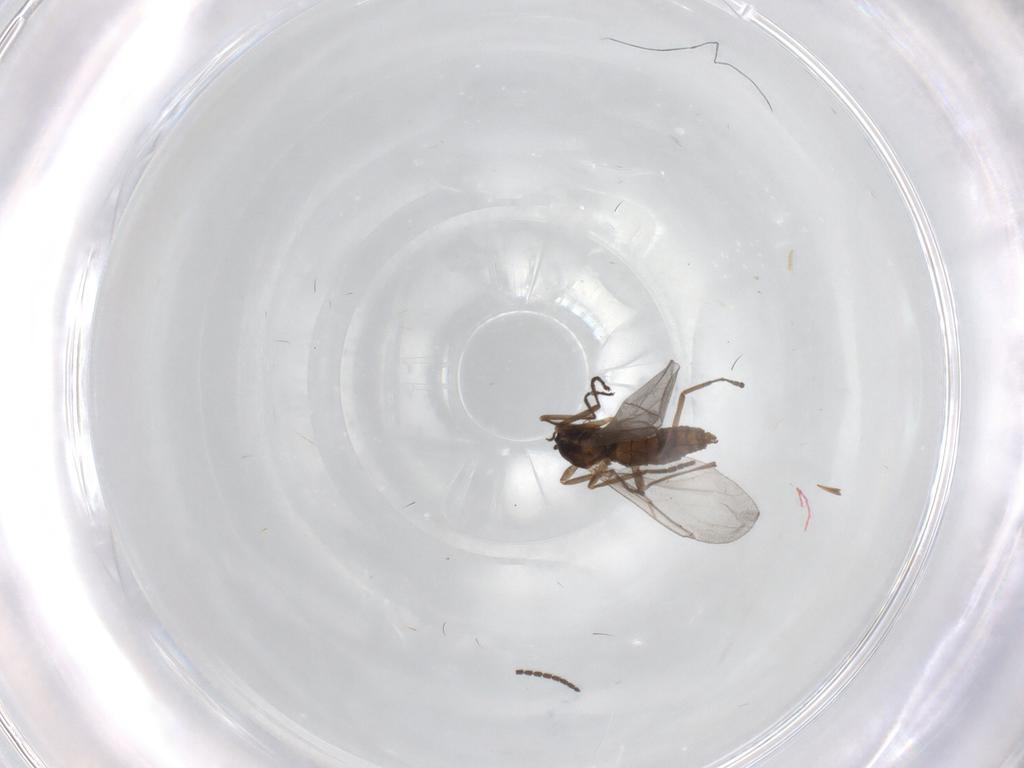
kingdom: Animalia
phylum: Arthropoda
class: Insecta
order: Diptera
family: Cecidomyiidae
